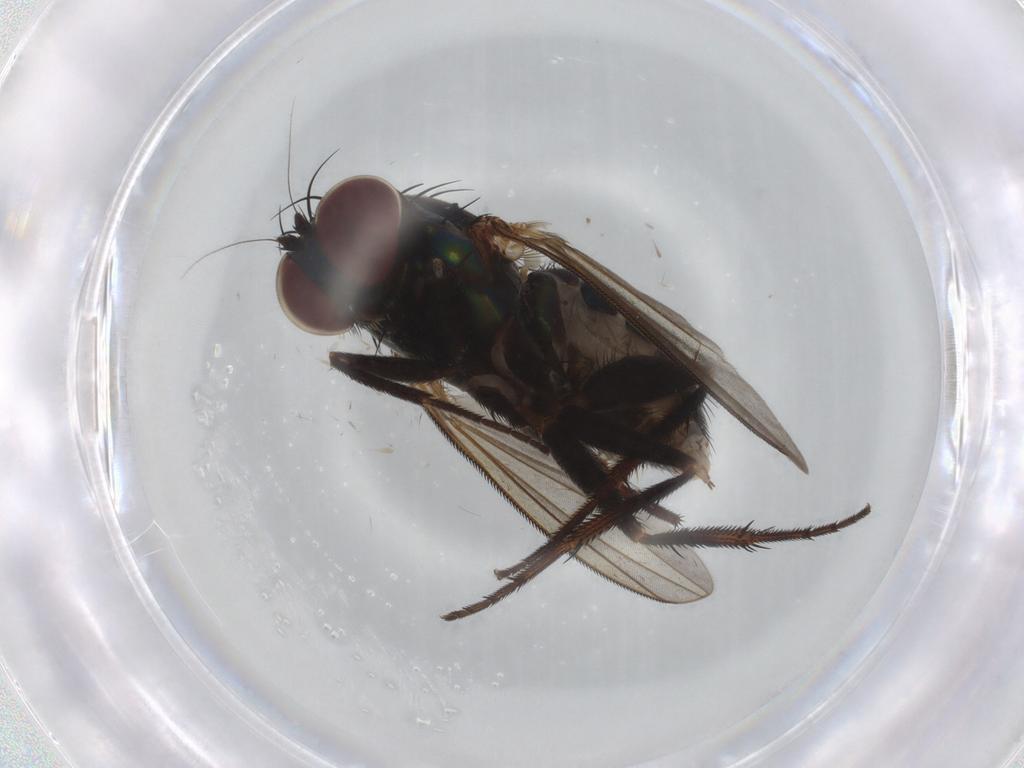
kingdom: Animalia
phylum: Arthropoda
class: Insecta
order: Diptera
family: Dolichopodidae
